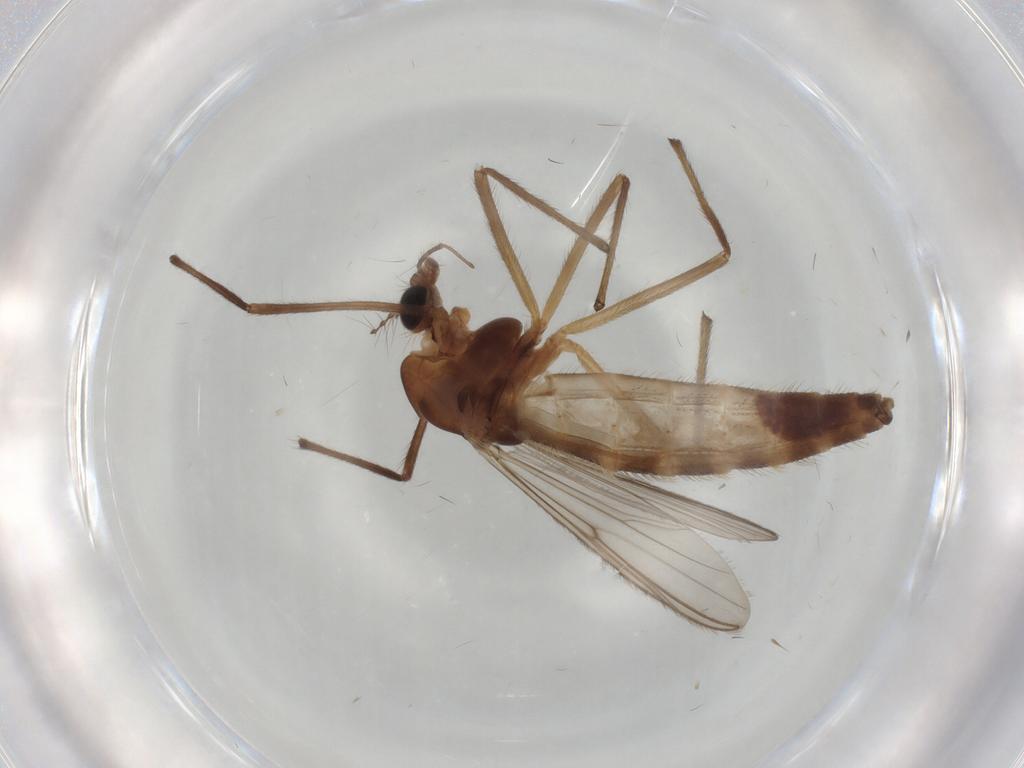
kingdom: Animalia
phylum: Arthropoda
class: Insecta
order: Diptera
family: Chironomidae
